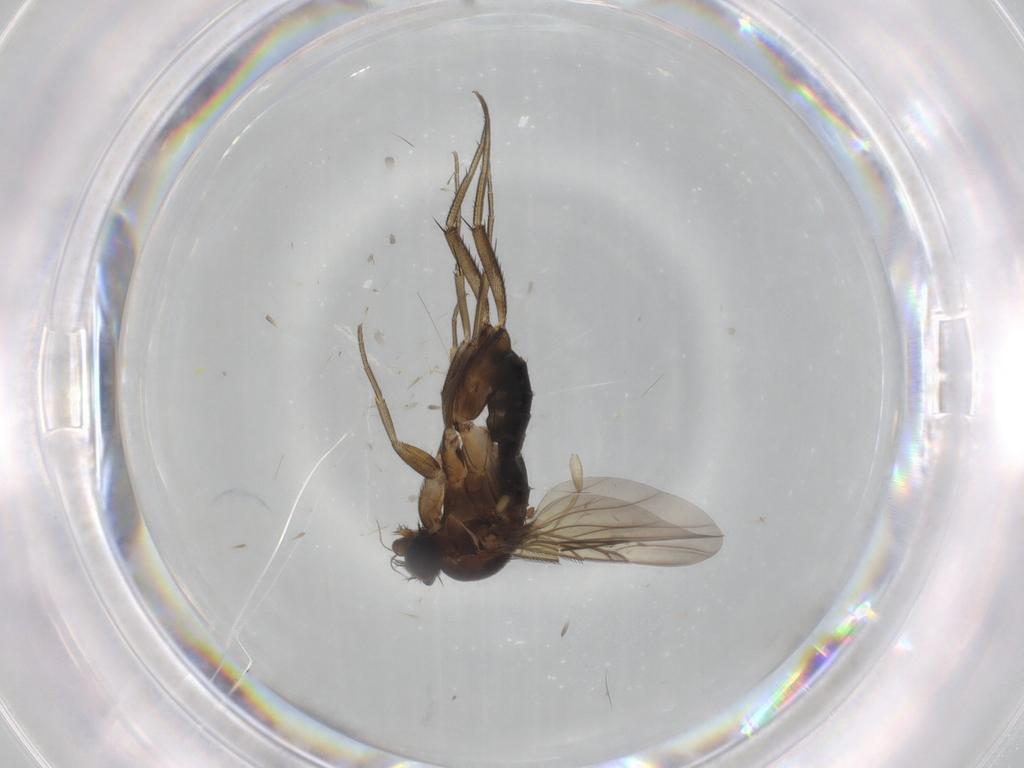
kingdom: Animalia
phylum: Arthropoda
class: Insecta
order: Diptera
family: Phoridae
